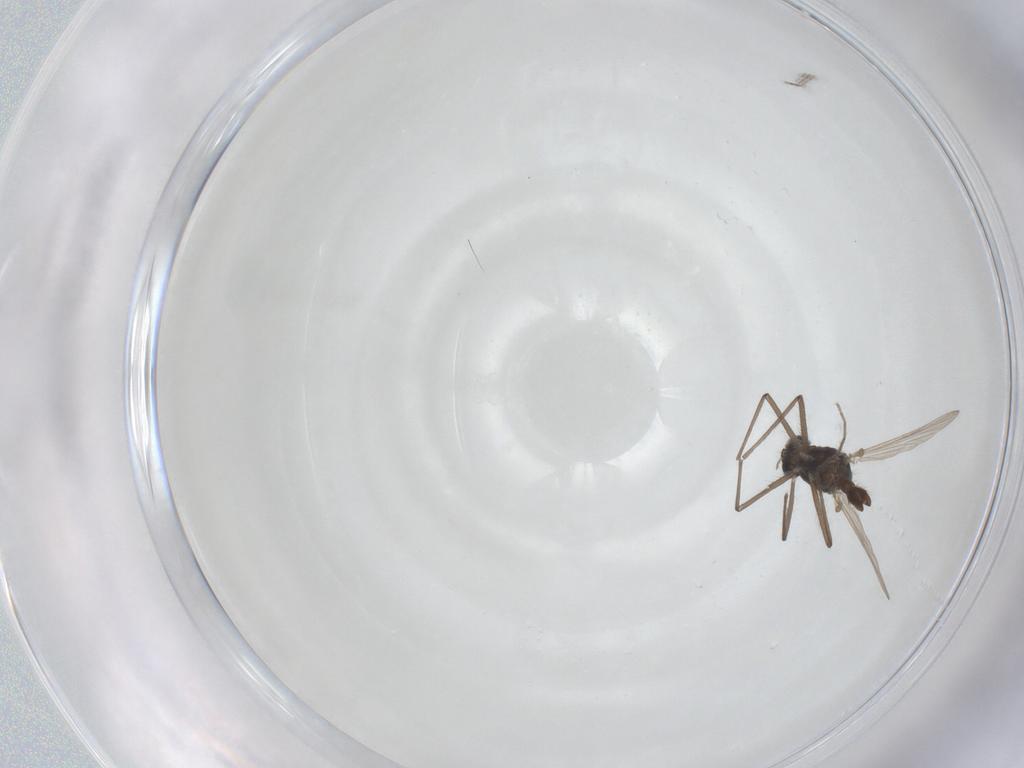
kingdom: Animalia
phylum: Arthropoda
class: Insecta
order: Diptera
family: Chironomidae
